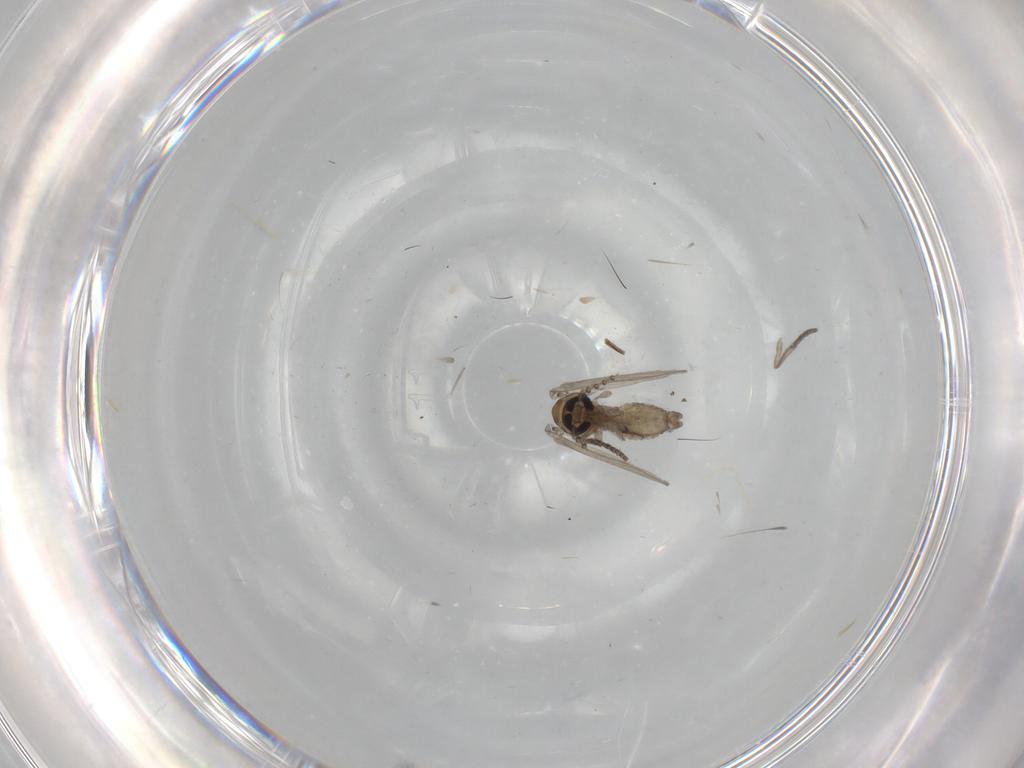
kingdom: Animalia
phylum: Arthropoda
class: Insecta
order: Diptera
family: Psychodidae
